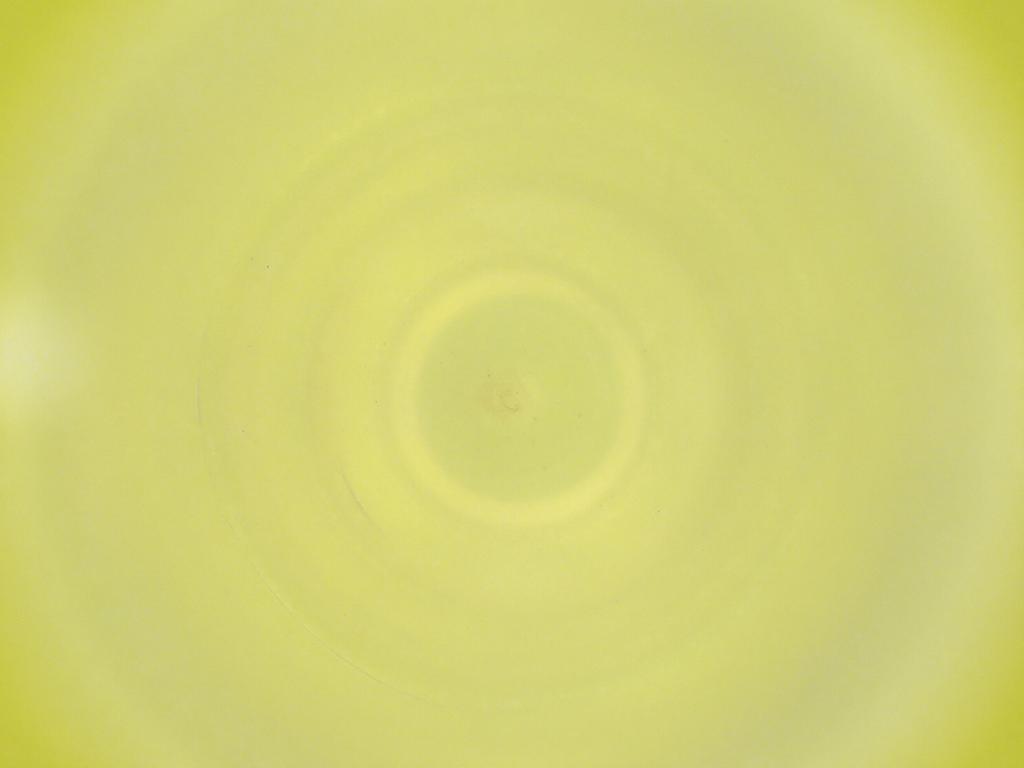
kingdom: Animalia
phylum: Arthropoda
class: Insecta
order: Diptera
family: Cecidomyiidae
